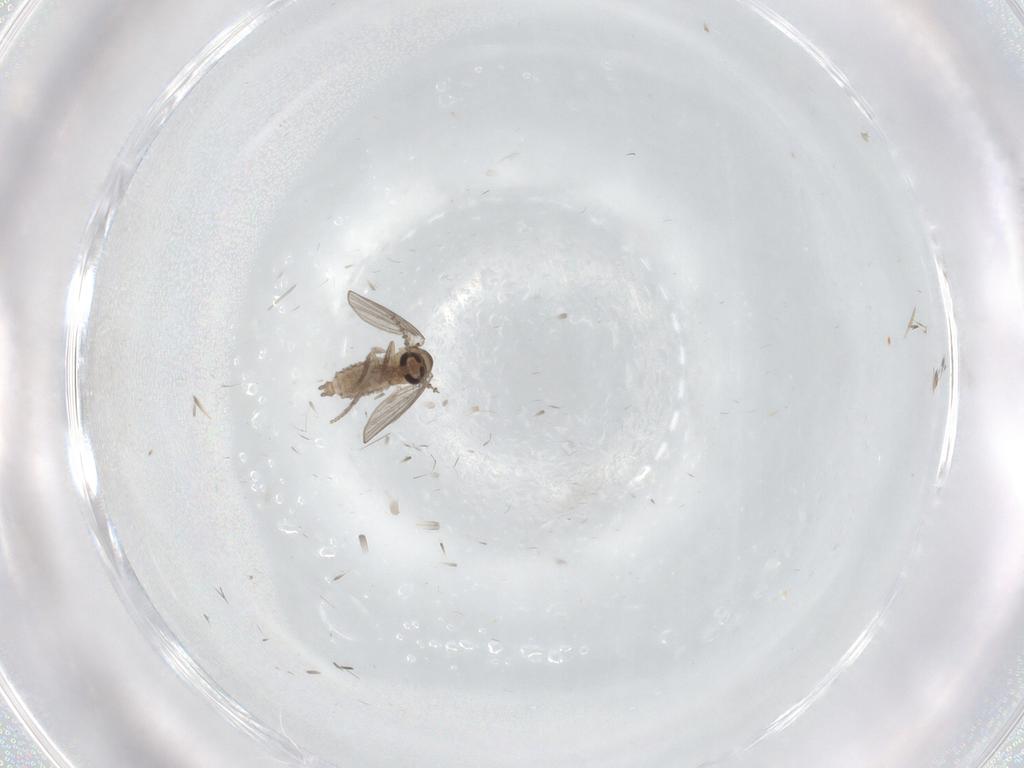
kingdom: Animalia
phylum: Arthropoda
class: Insecta
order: Diptera
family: Psychodidae
